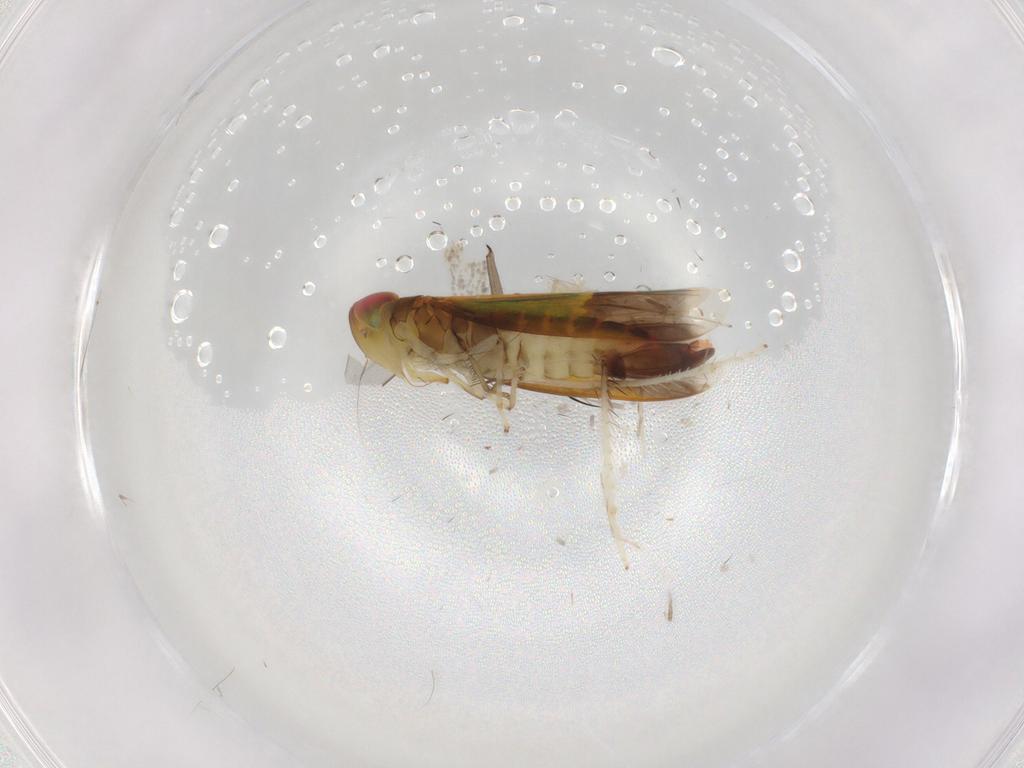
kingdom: Animalia
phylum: Arthropoda
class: Insecta
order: Hemiptera
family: Cicadellidae
